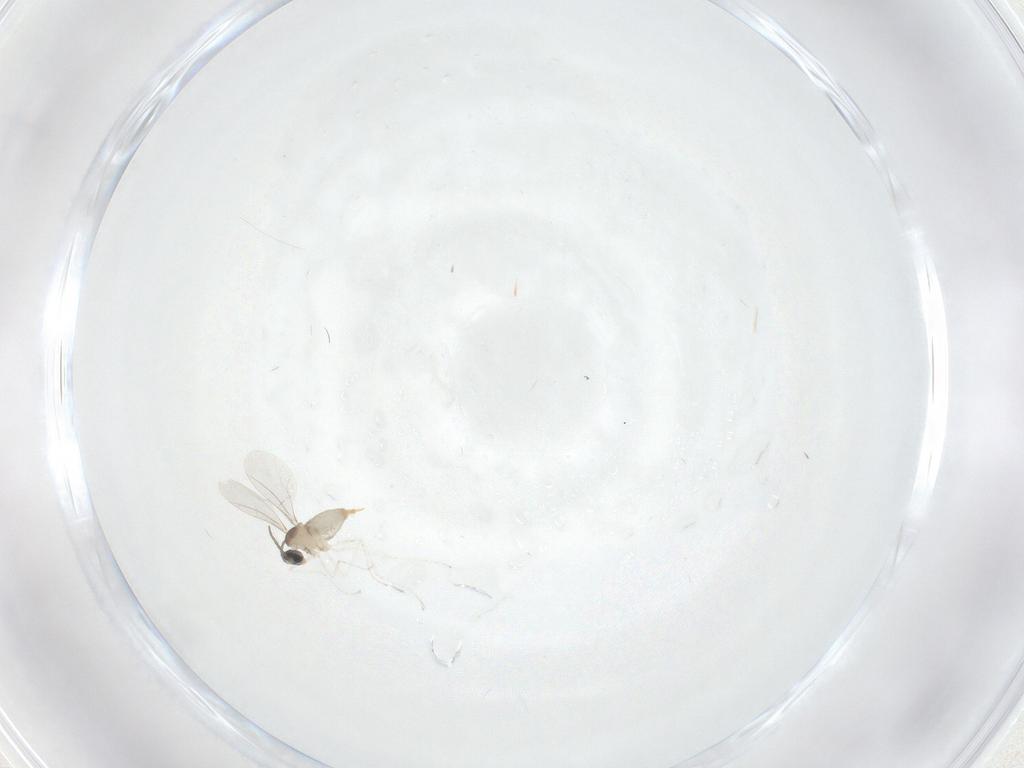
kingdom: Animalia
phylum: Arthropoda
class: Insecta
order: Diptera
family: Cecidomyiidae
